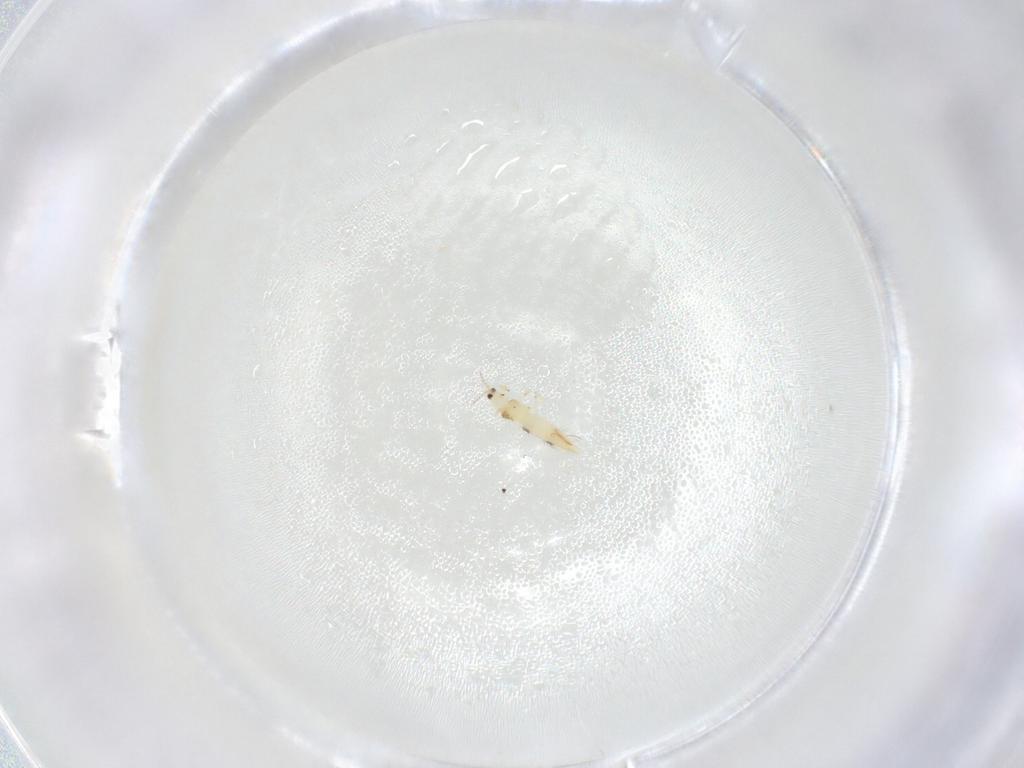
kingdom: Animalia
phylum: Arthropoda
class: Insecta
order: Thysanoptera
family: Thripidae
